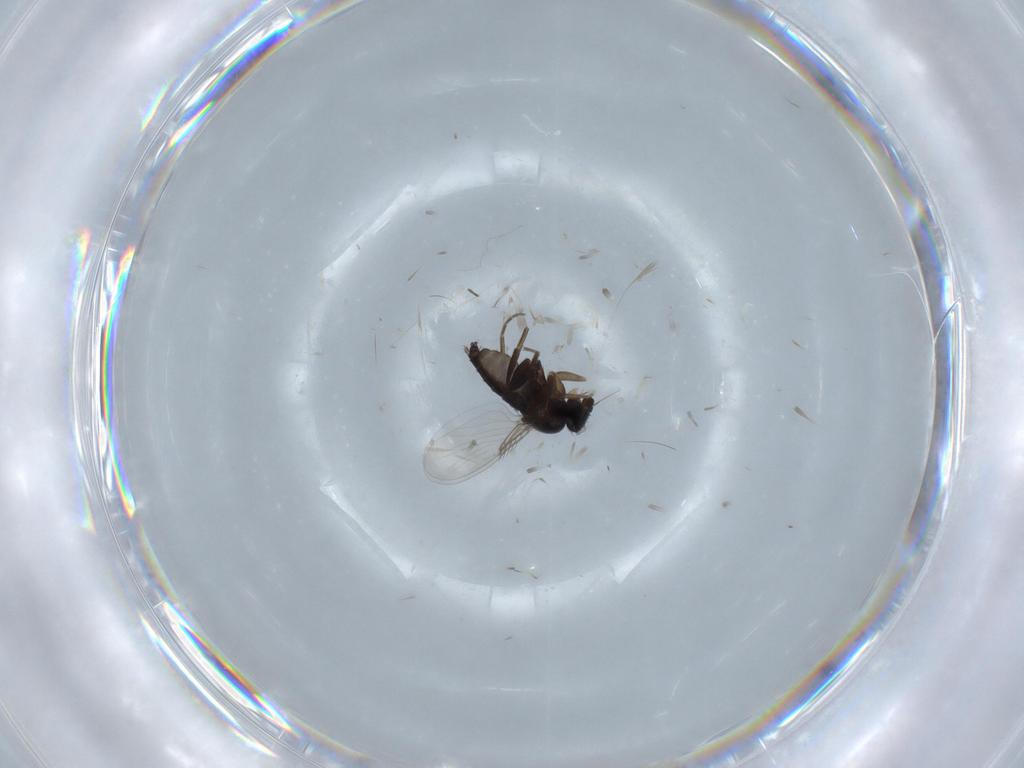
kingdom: Animalia
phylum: Arthropoda
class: Insecta
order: Diptera
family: Phoridae
